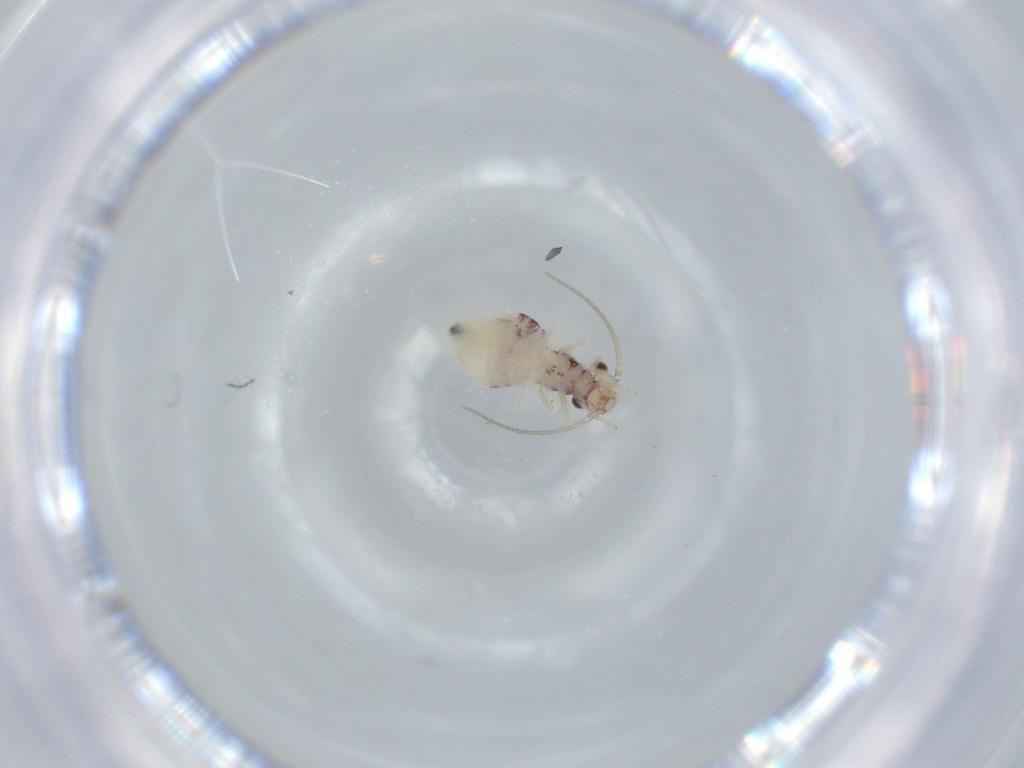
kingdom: Animalia
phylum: Arthropoda
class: Insecta
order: Psocodea
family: Caeciliusidae
